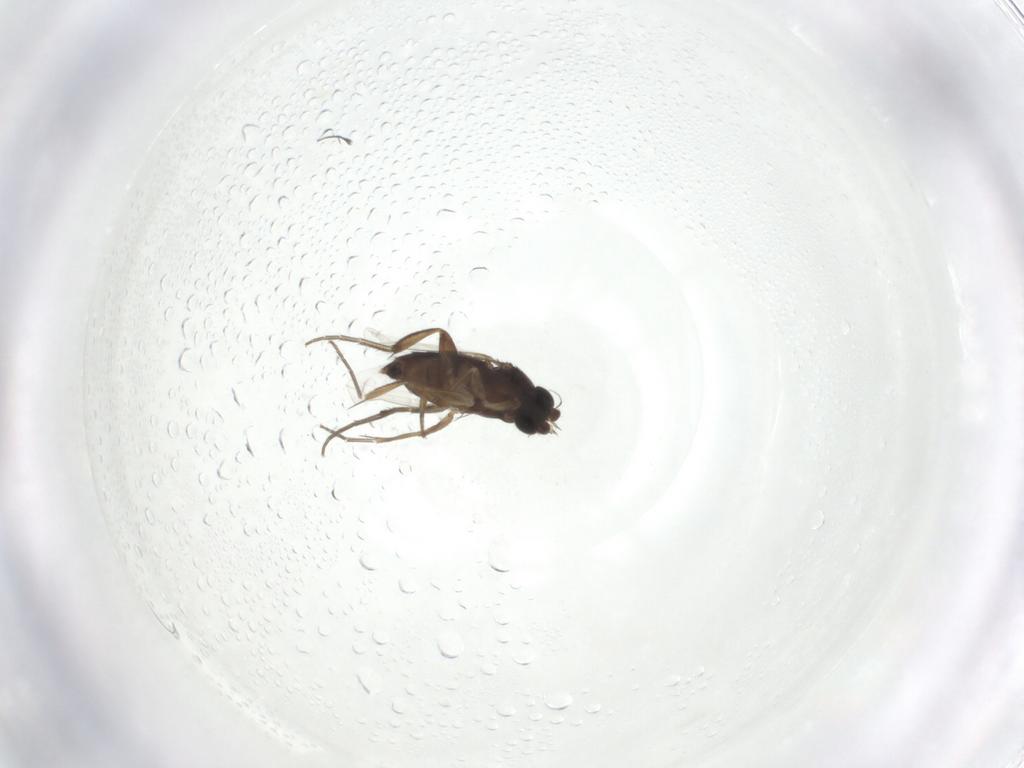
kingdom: Animalia
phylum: Arthropoda
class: Insecta
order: Diptera
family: Phoridae
